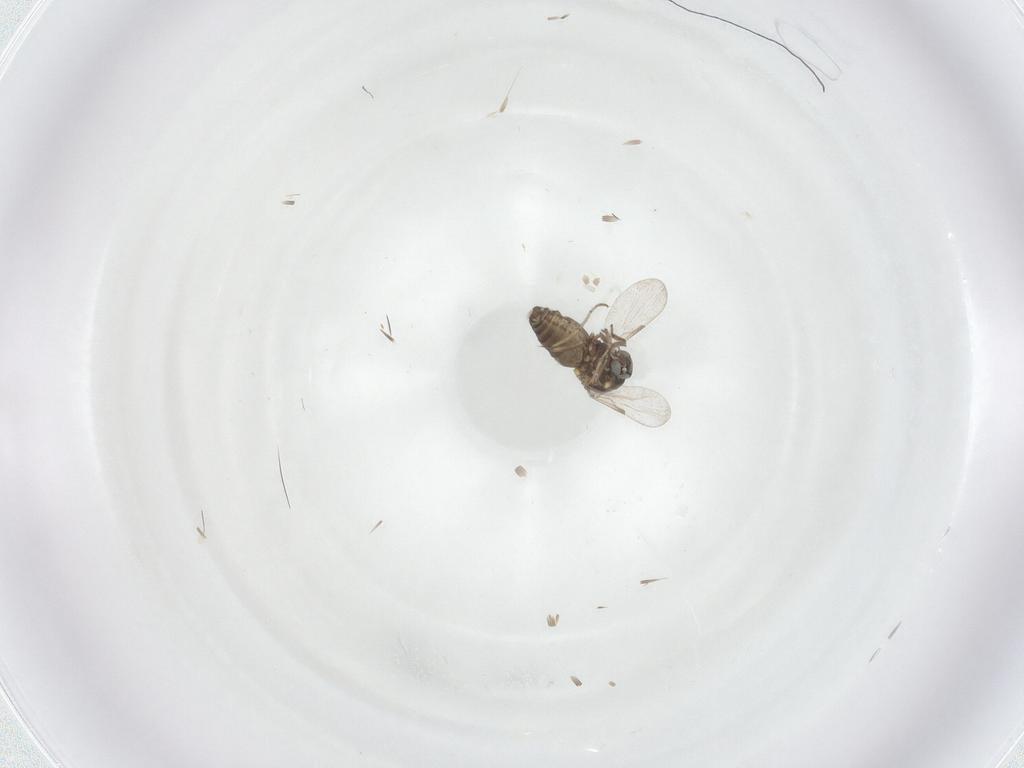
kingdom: Animalia
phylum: Arthropoda
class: Insecta
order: Diptera
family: Ceratopogonidae
